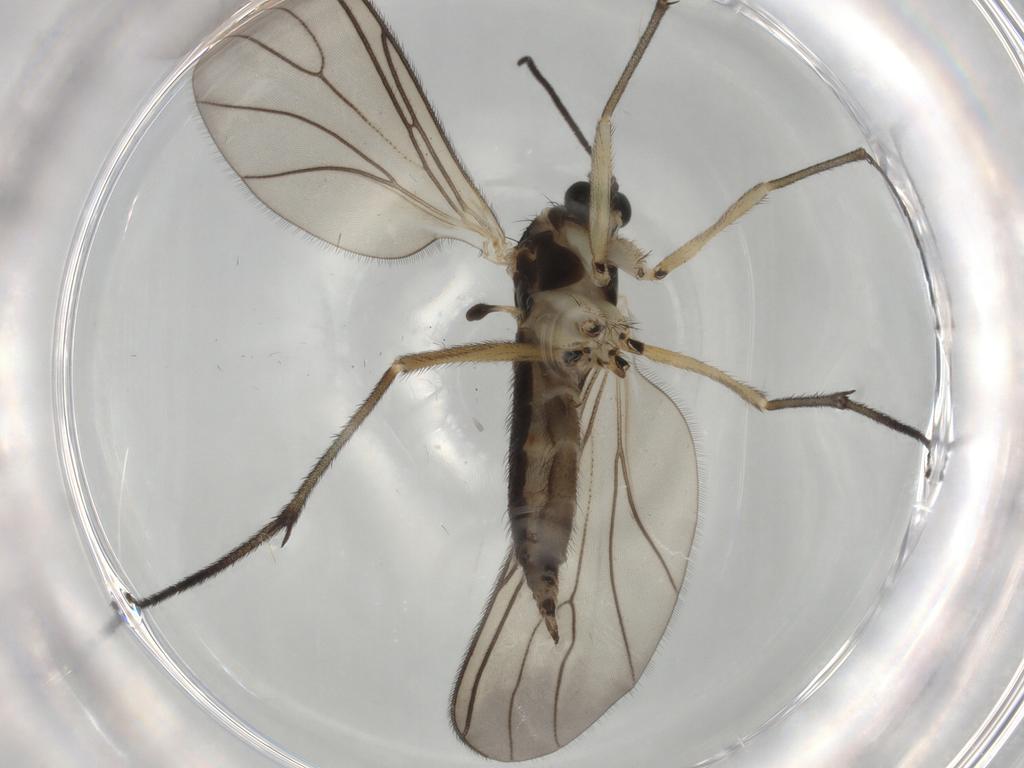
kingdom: Animalia
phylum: Arthropoda
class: Insecta
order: Diptera
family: Sciaridae
